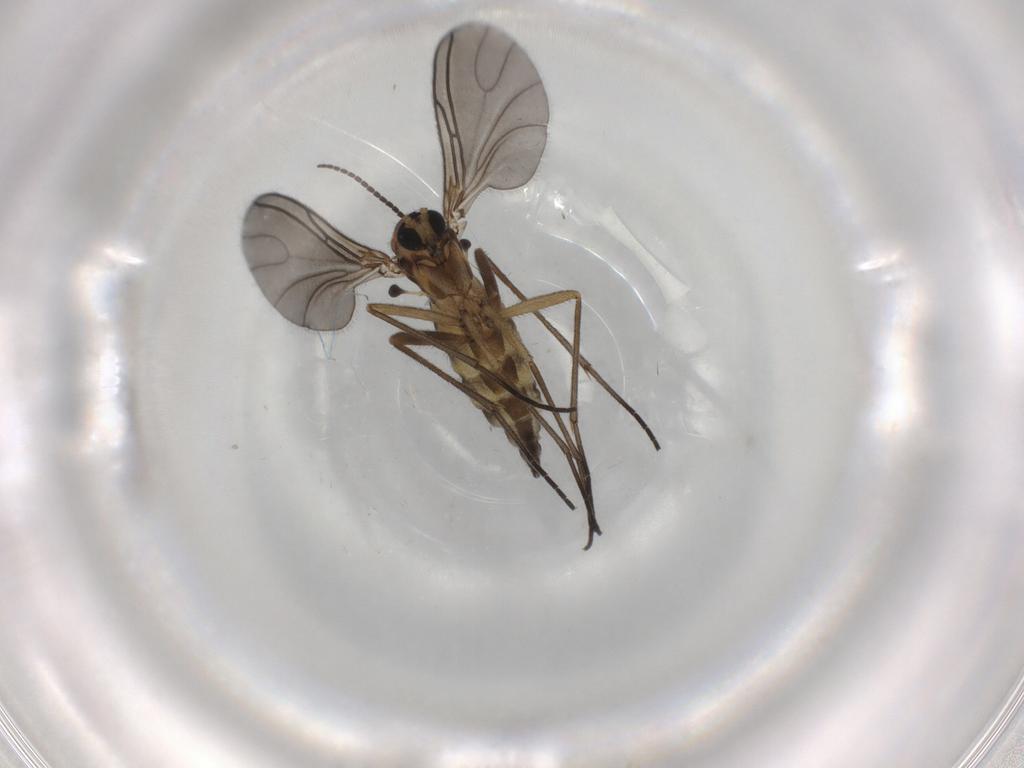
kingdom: Animalia
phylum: Arthropoda
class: Insecta
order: Diptera
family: Sciaridae
